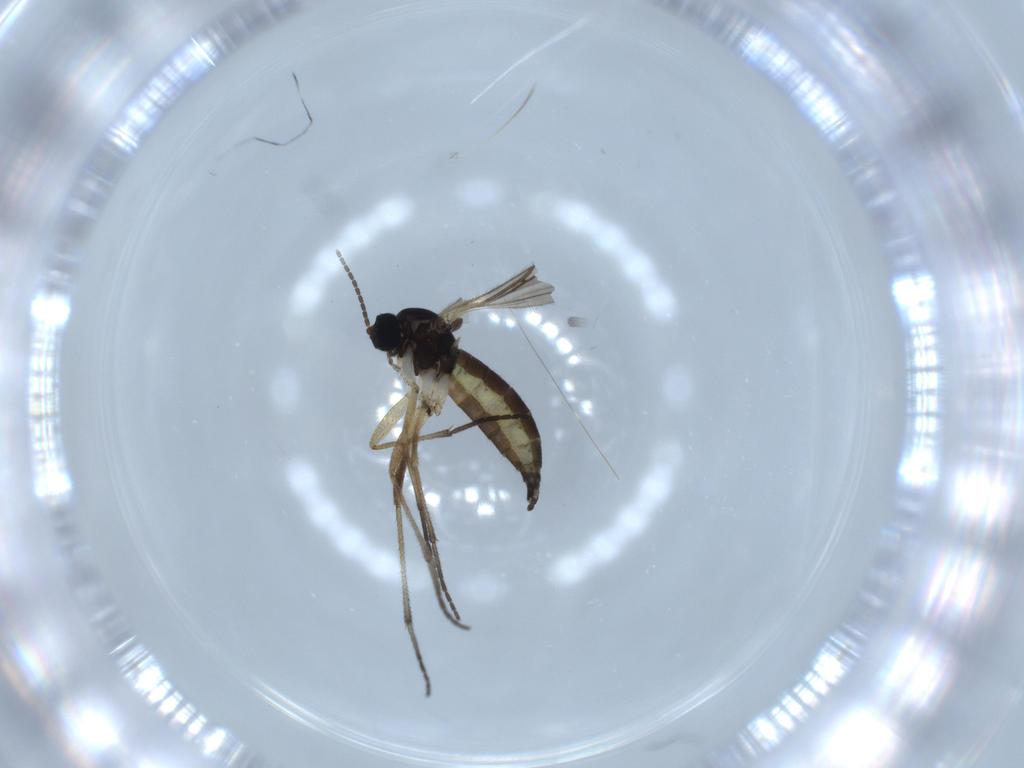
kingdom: Animalia
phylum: Arthropoda
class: Insecta
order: Diptera
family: Sciaridae
